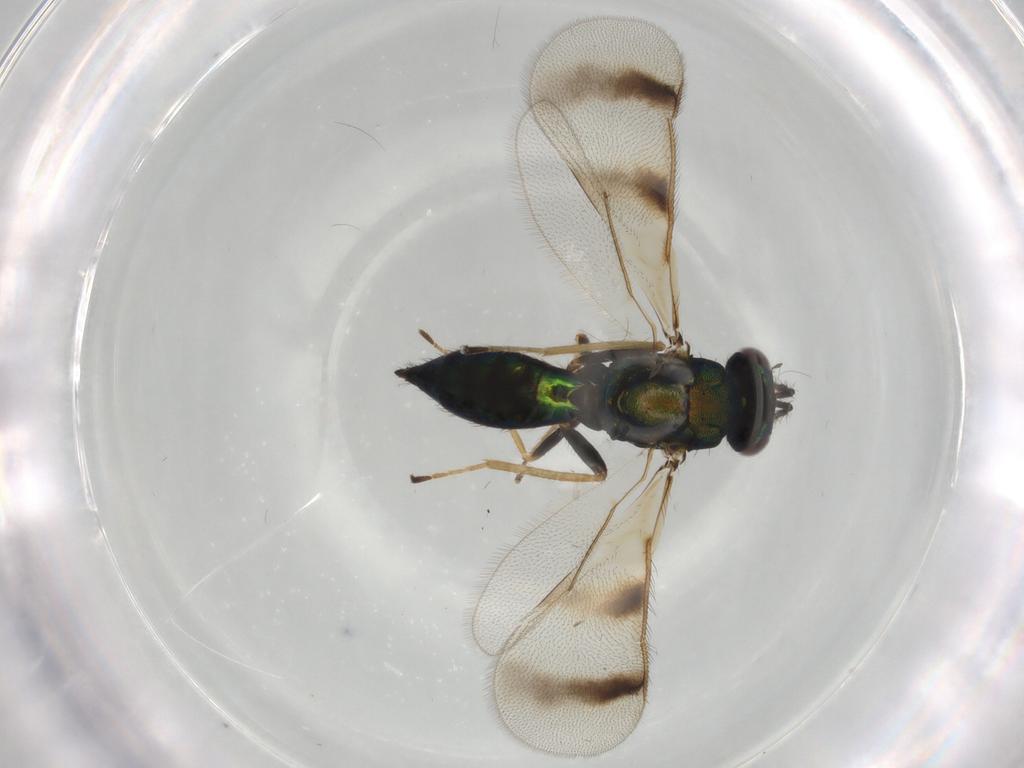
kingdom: Animalia
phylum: Arthropoda
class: Insecta
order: Hymenoptera
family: Eulophidae
